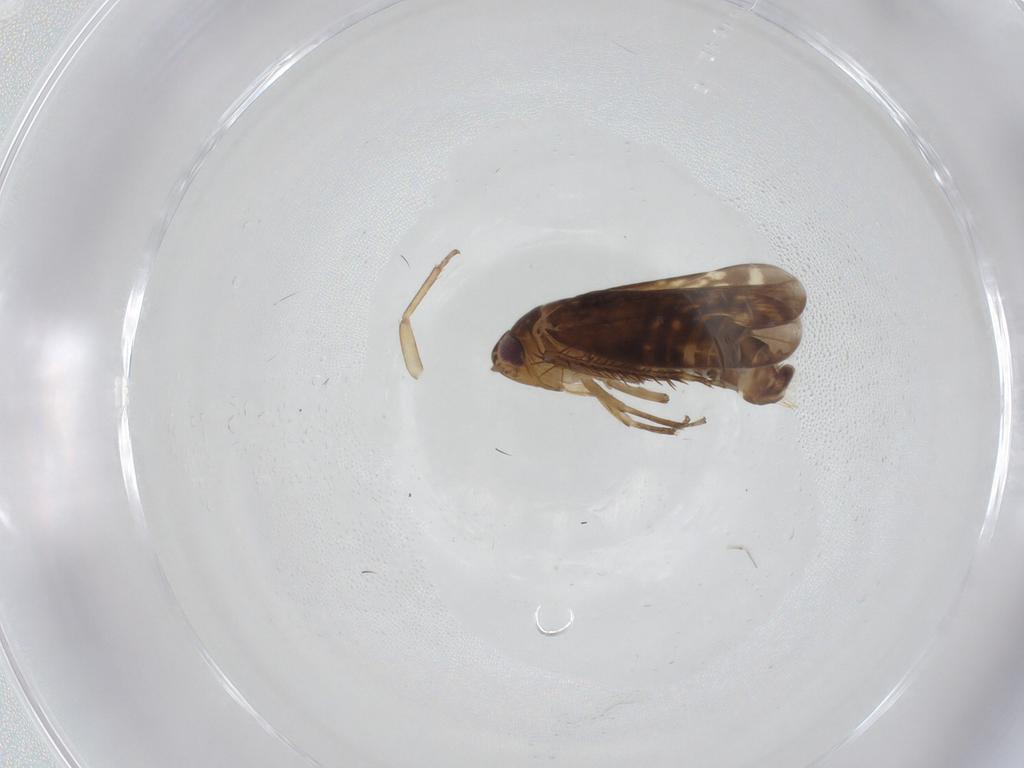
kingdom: Animalia
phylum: Arthropoda
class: Insecta
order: Hemiptera
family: Cicadellidae
